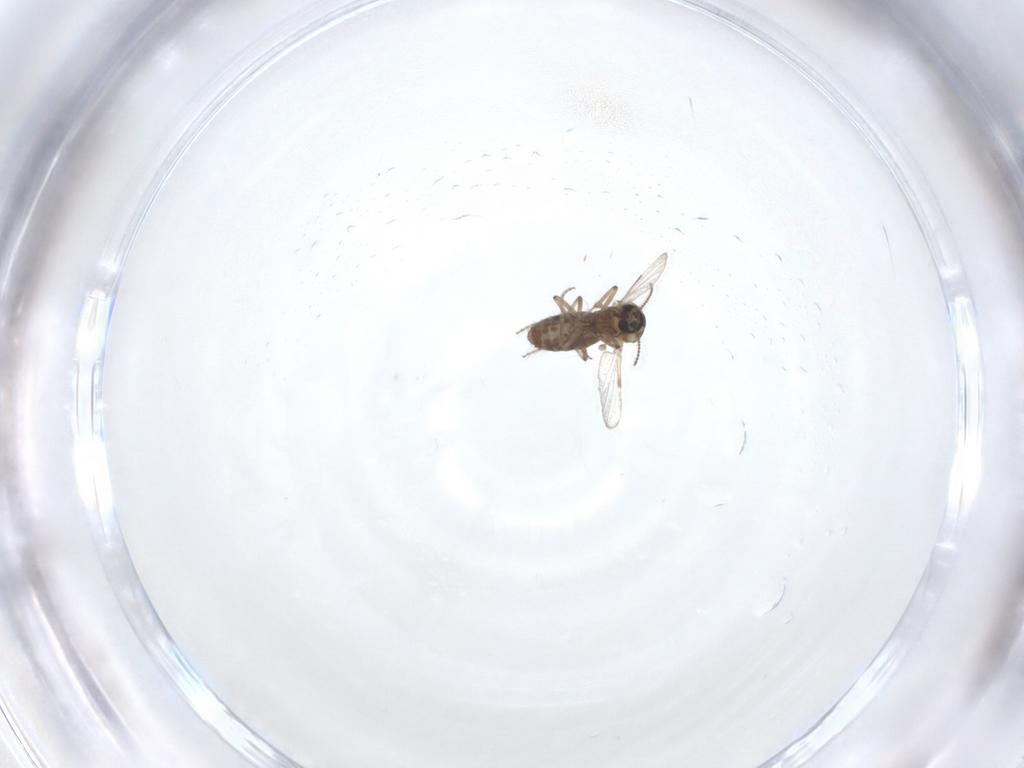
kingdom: Animalia
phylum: Arthropoda
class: Insecta
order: Diptera
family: Ceratopogonidae
